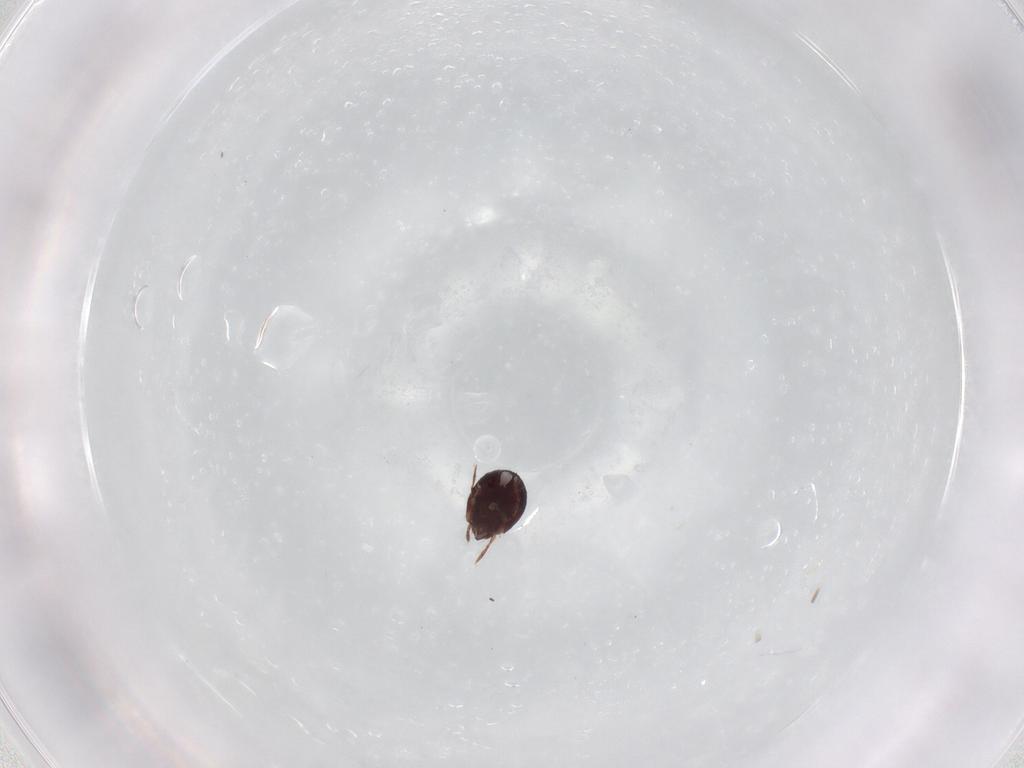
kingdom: Animalia
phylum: Arthropoda
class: Arachnida
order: Sarcoptiformes
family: Humerobatidae
